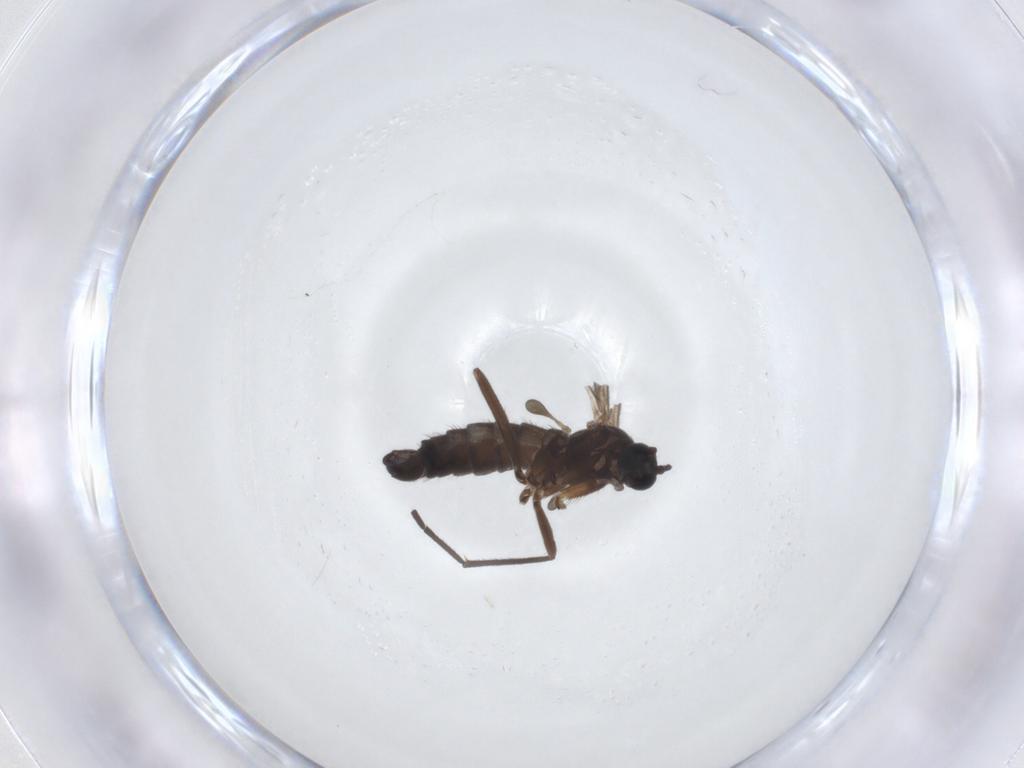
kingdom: Animalia
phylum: Arthropoda
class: Insecta
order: Diptera
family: Sciaridae
